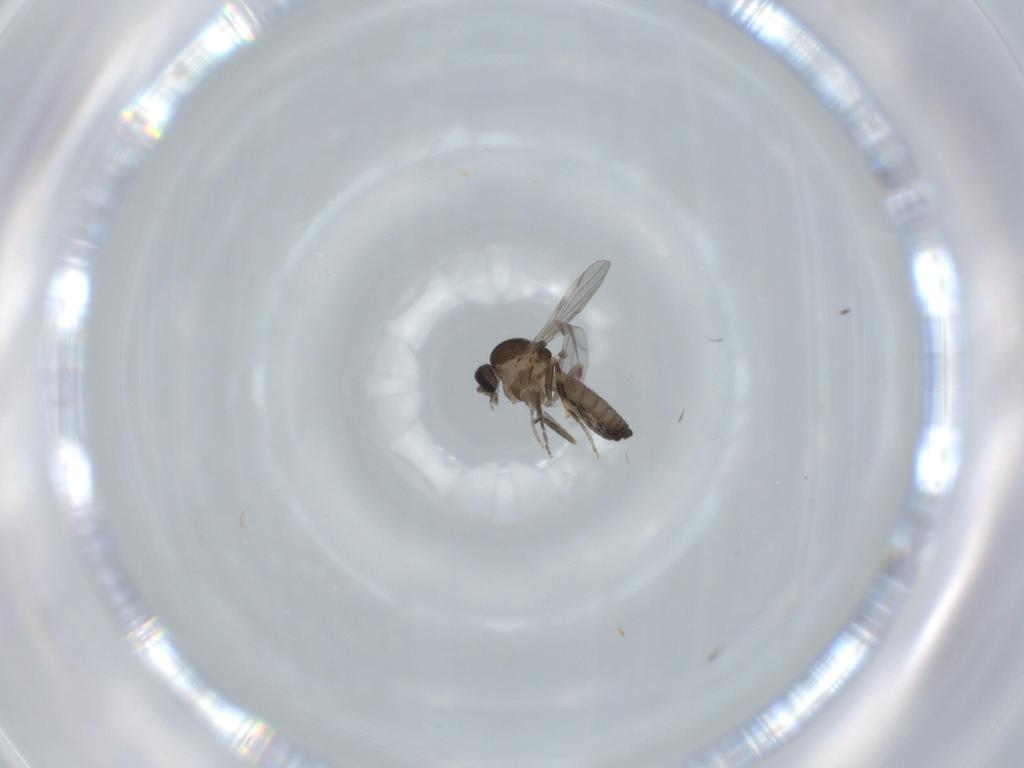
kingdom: Animalia
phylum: Arthropoda
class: Insecta
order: Diptera
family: Ceratopogonidae
